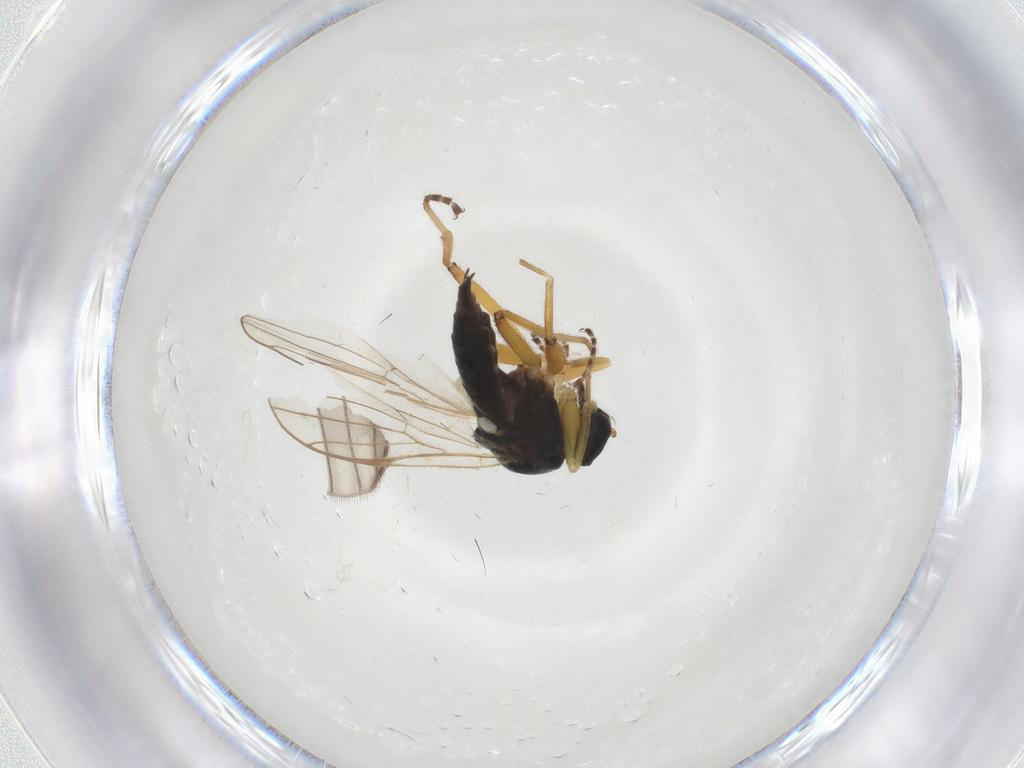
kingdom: Animalia
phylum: Arthropoda
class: Insecta
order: Diptera
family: Hybotidae
